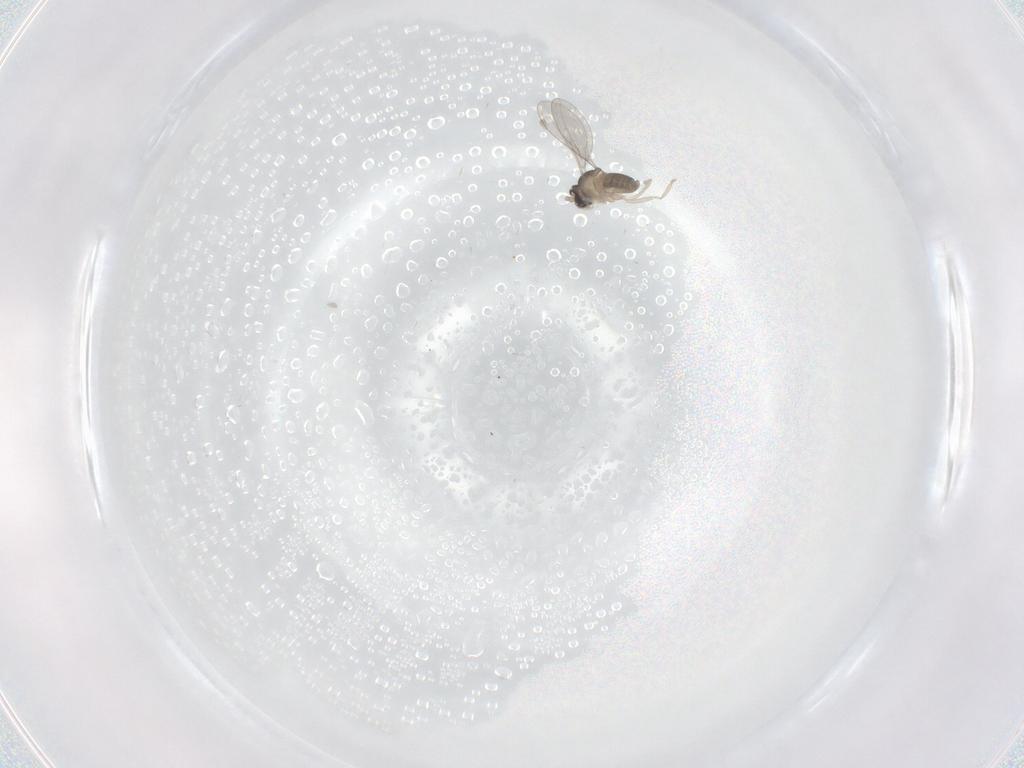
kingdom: Animalia
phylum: Arthropoda
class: Insecta
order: Diptera
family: Cecidomyiidae
